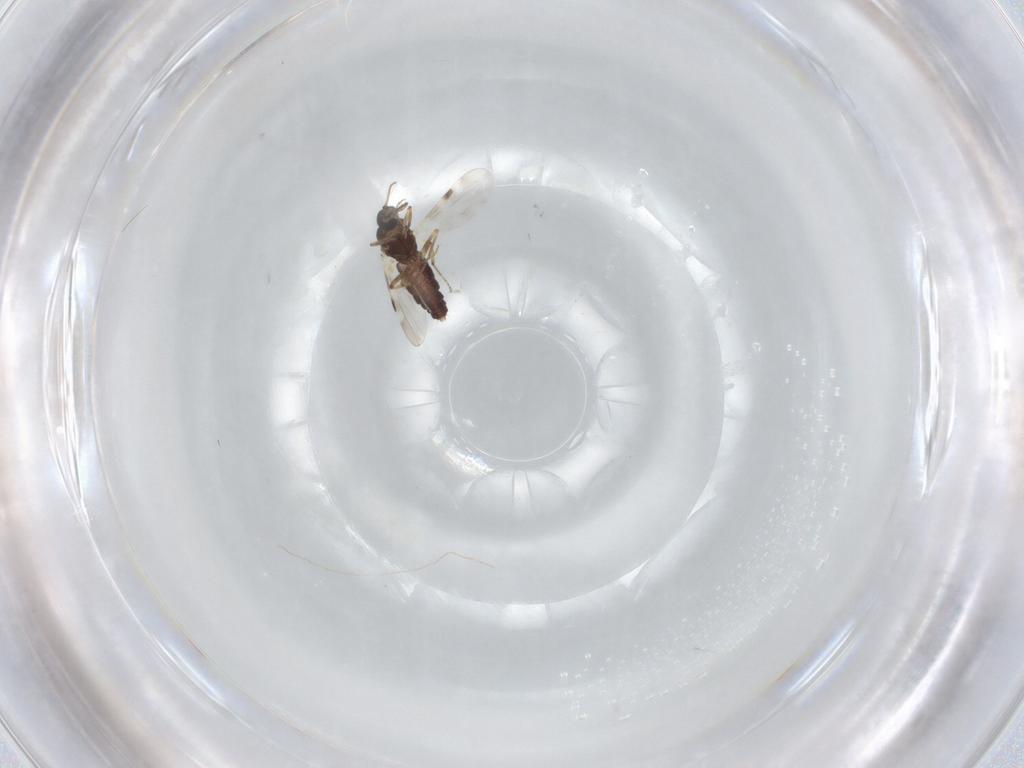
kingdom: Animalia
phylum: Arthropoda
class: Insecta
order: Diptera
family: Psychodidae
